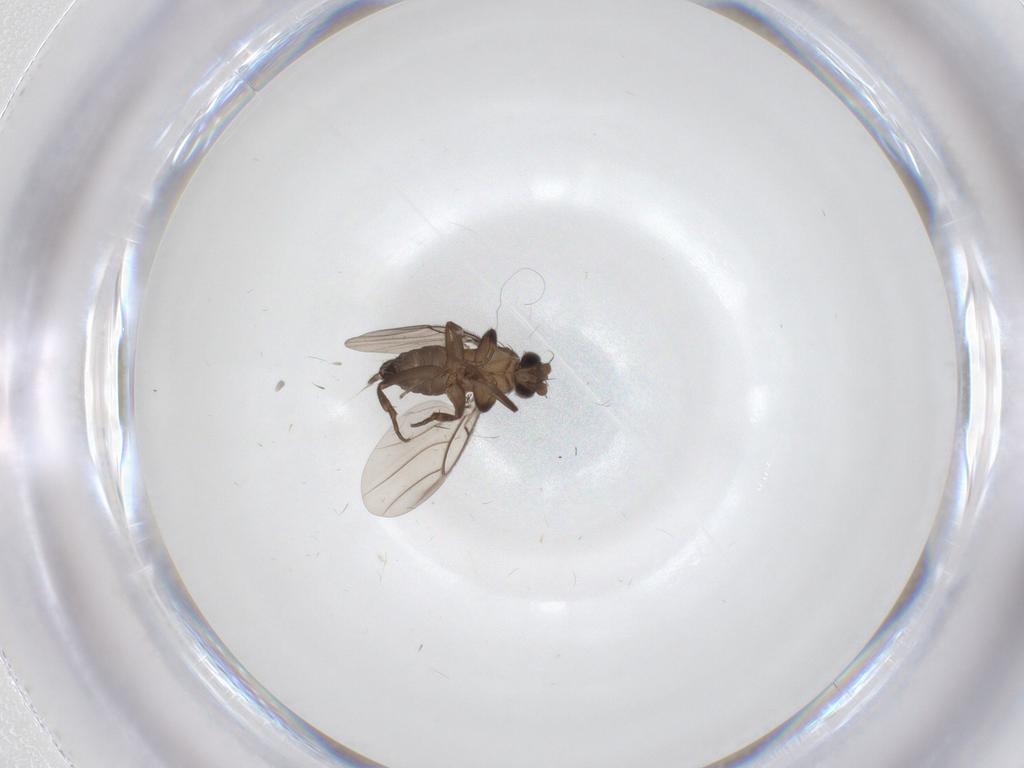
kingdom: Animalia
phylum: Arthropoda
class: Insecta
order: Diptera
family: Phoridae
